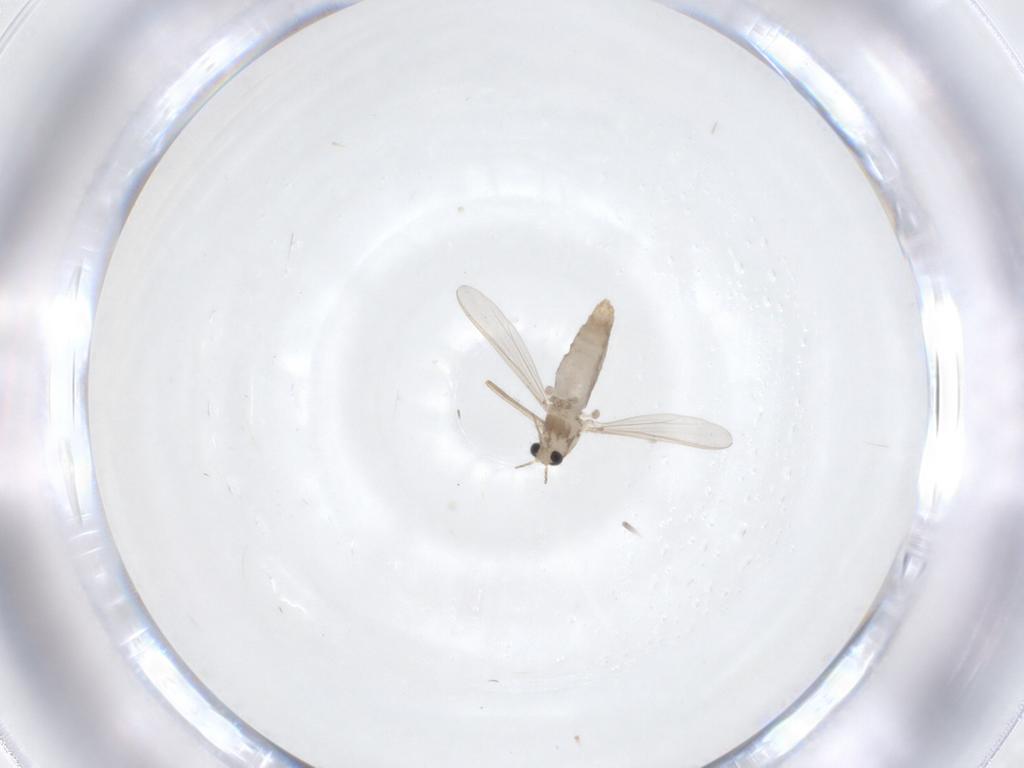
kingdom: Animalia
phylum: Arthropoda
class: Insecta
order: Diptera
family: Chironomidae
